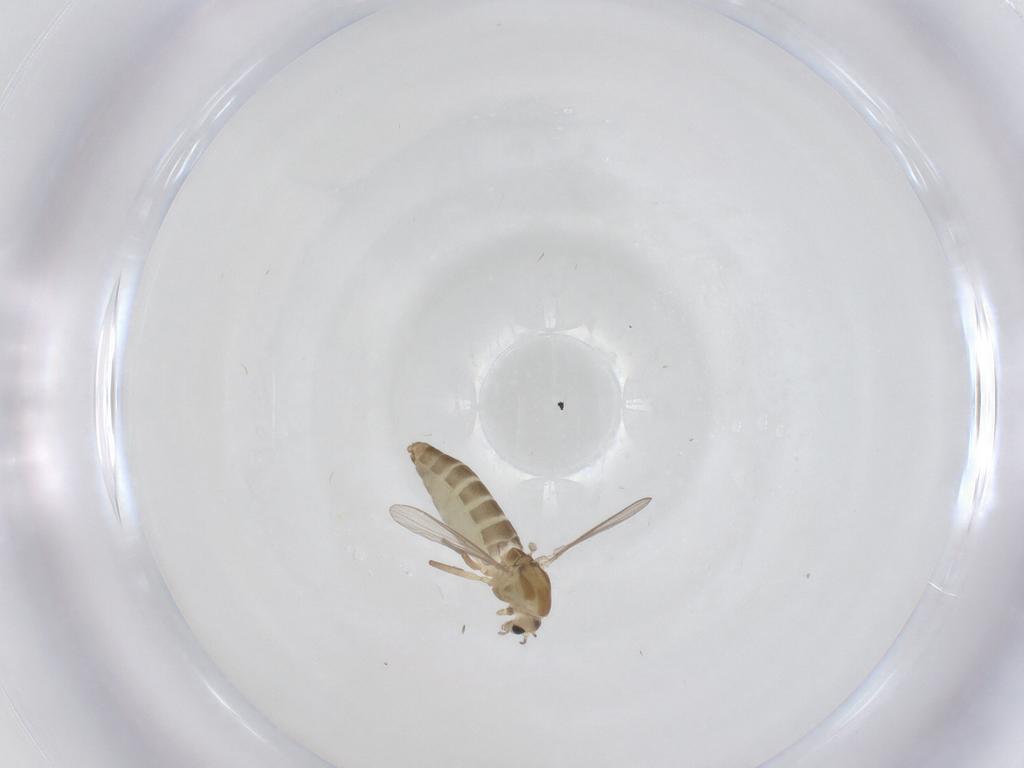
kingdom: Animalia
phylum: Arthropoda
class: Insecta
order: Diptera
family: Chironomidae
